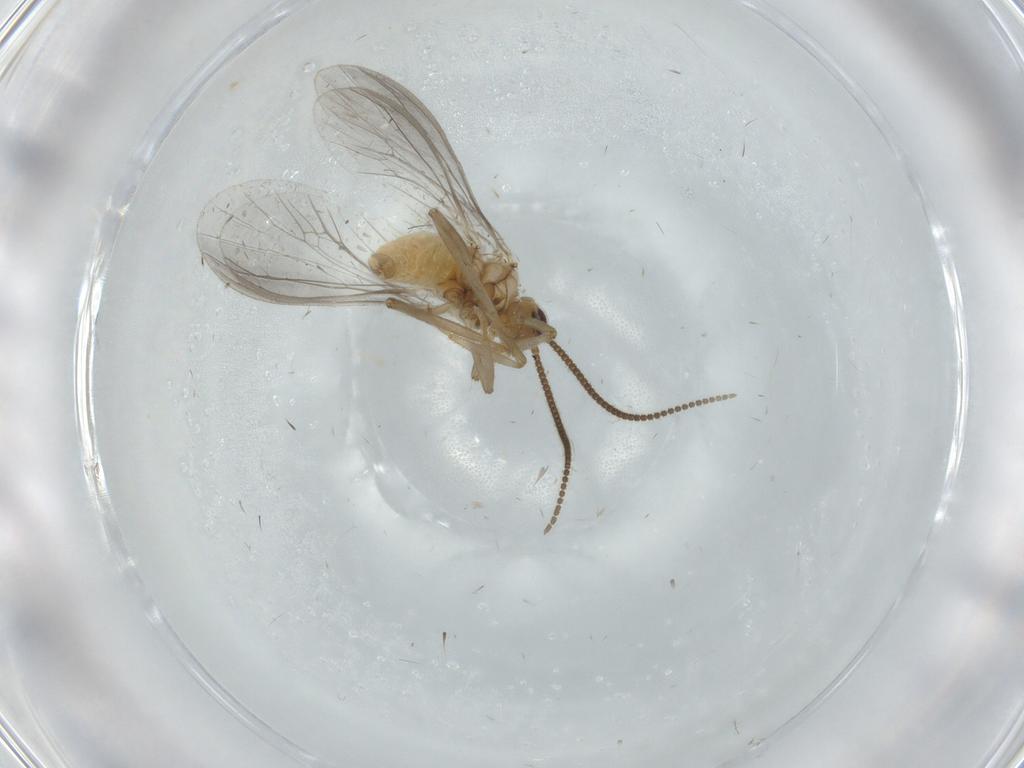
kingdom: Animalia
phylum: Arthropoda
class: Insecta
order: Neuroptera
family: Coniopterygidae
